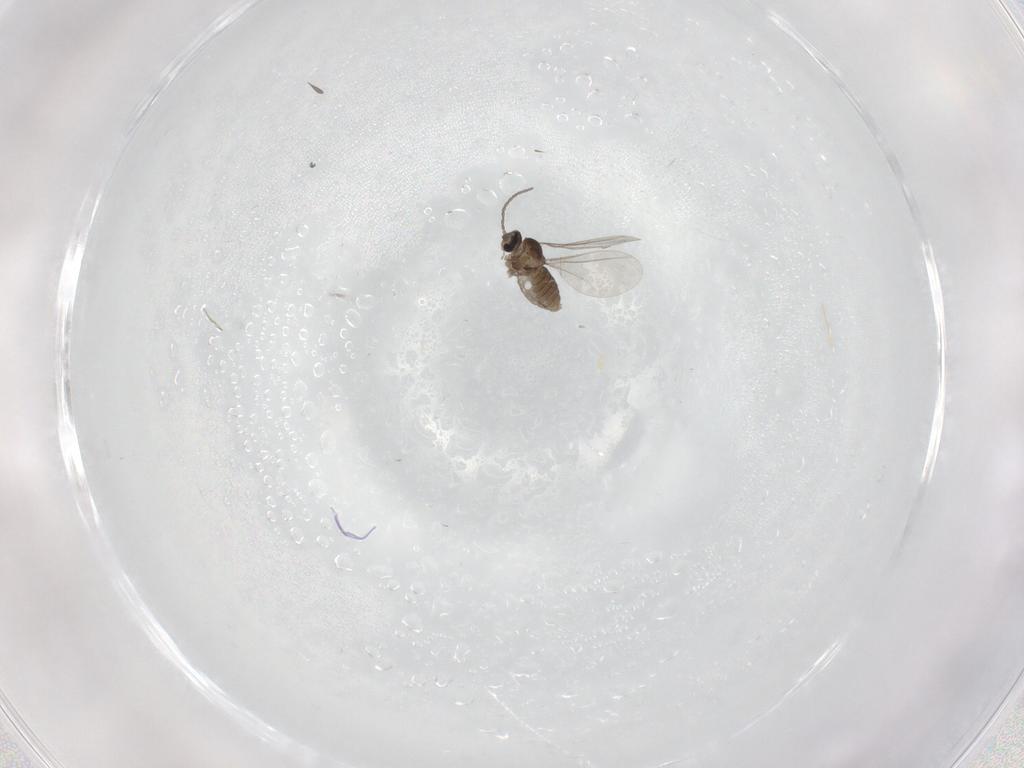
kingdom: Animalia
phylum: Arthropoda
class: Insecta
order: Diptera
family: Cecidomyiidae
